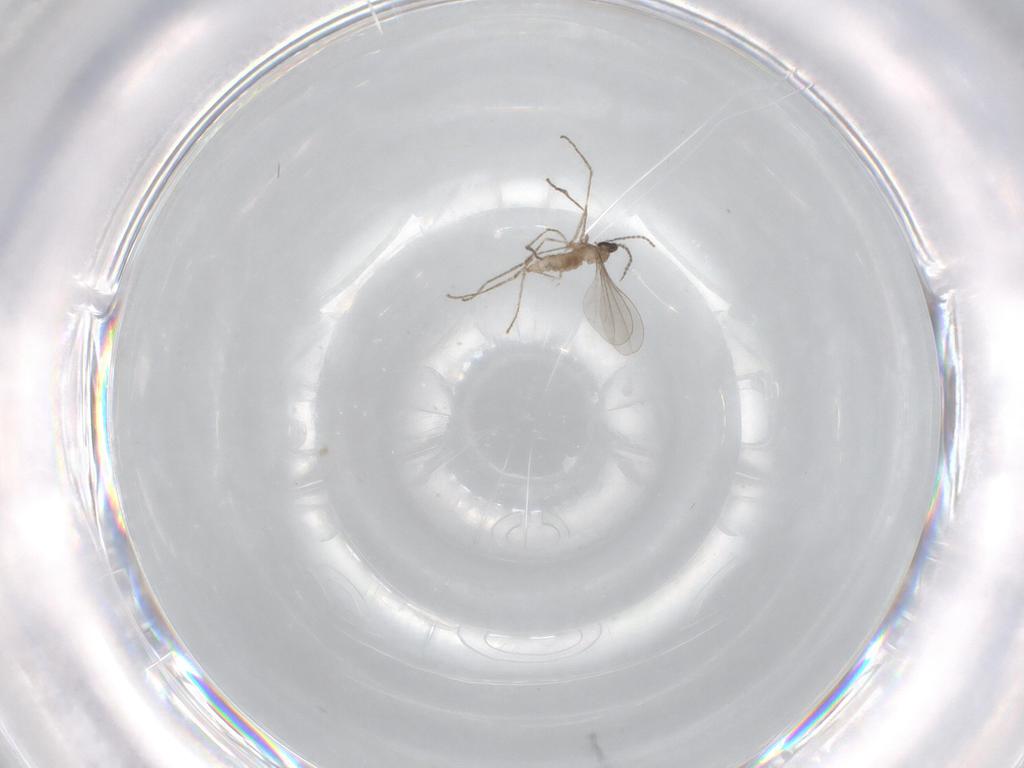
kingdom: Animalia
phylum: Arthropoda
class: Insecta
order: Diptera
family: Cecidomyiidae
